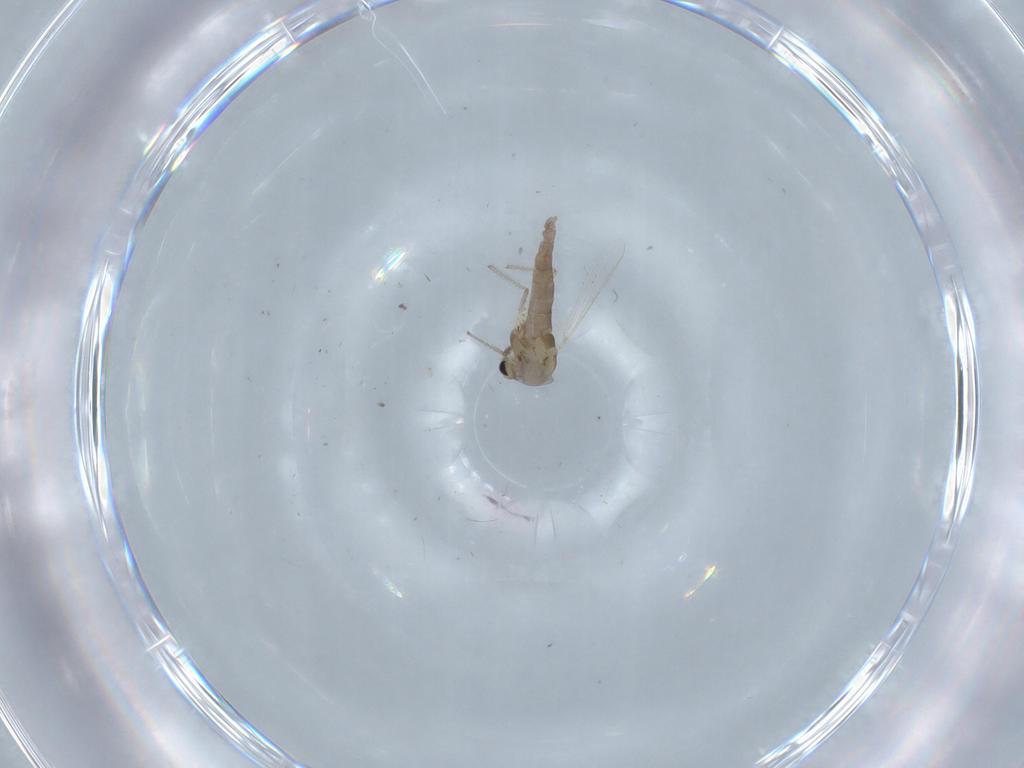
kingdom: Animalia
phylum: Arthropoda
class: Insecta
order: Diptera
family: Chironomidae
